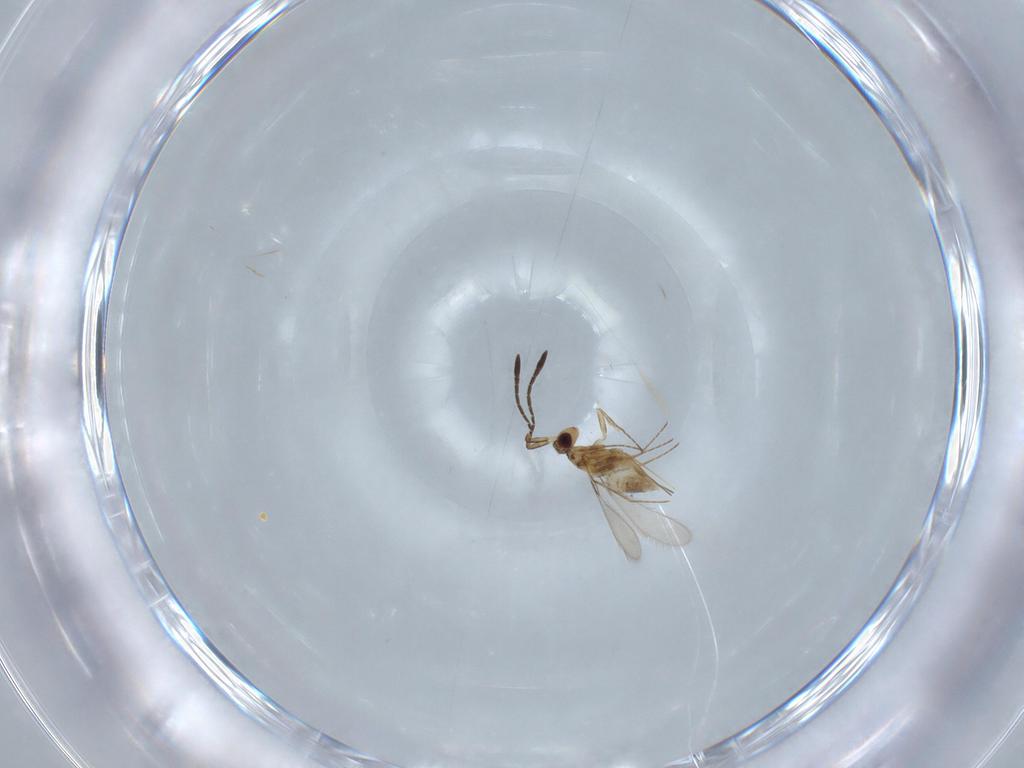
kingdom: Animalia
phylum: Arthropoda
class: Insecta
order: Hymenoptera
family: Mymaridae
